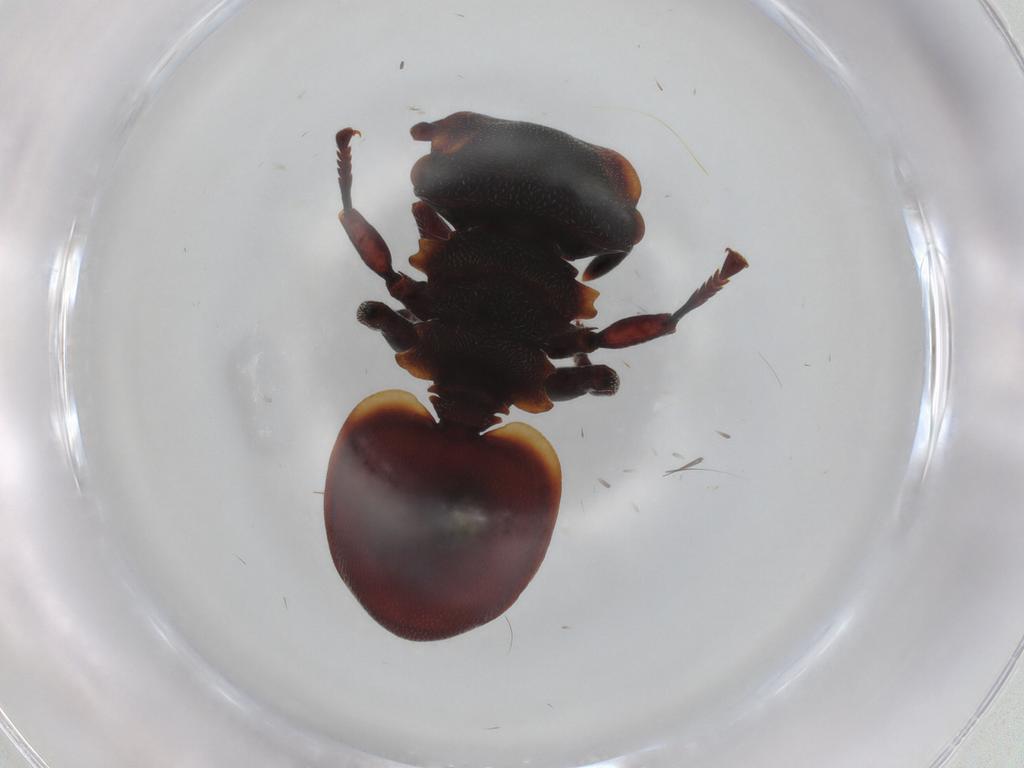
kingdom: Animalia
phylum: Arthropoda
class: Insecta
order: Hymenoptera
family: Formicidae
